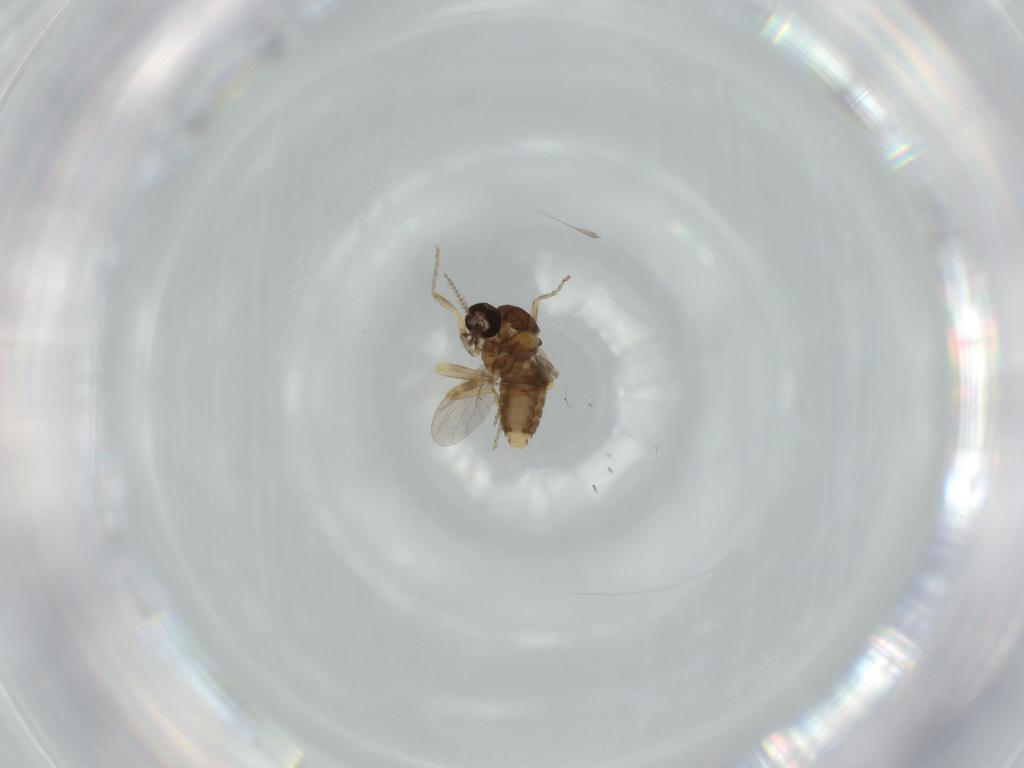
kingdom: Animalia
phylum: Arthropoda
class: Insecta
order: Diptera
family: Ceratopogonidae
